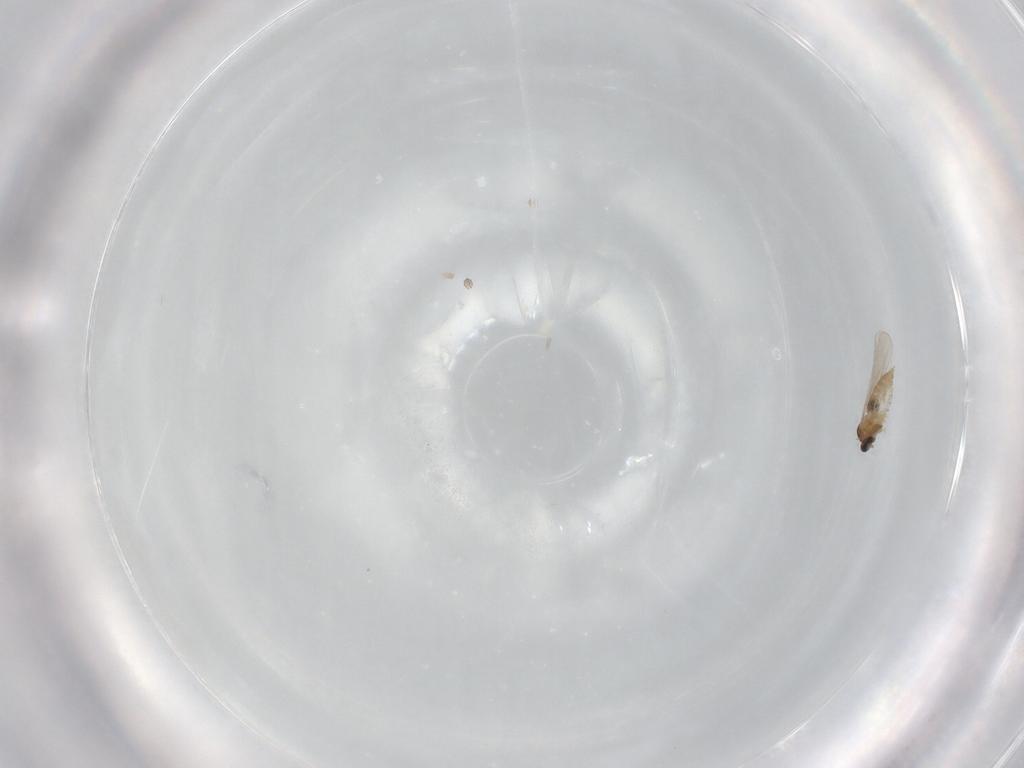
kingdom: Animalia
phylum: Arthropoda
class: Insecta
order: Diptera
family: Cecidomyiidae
